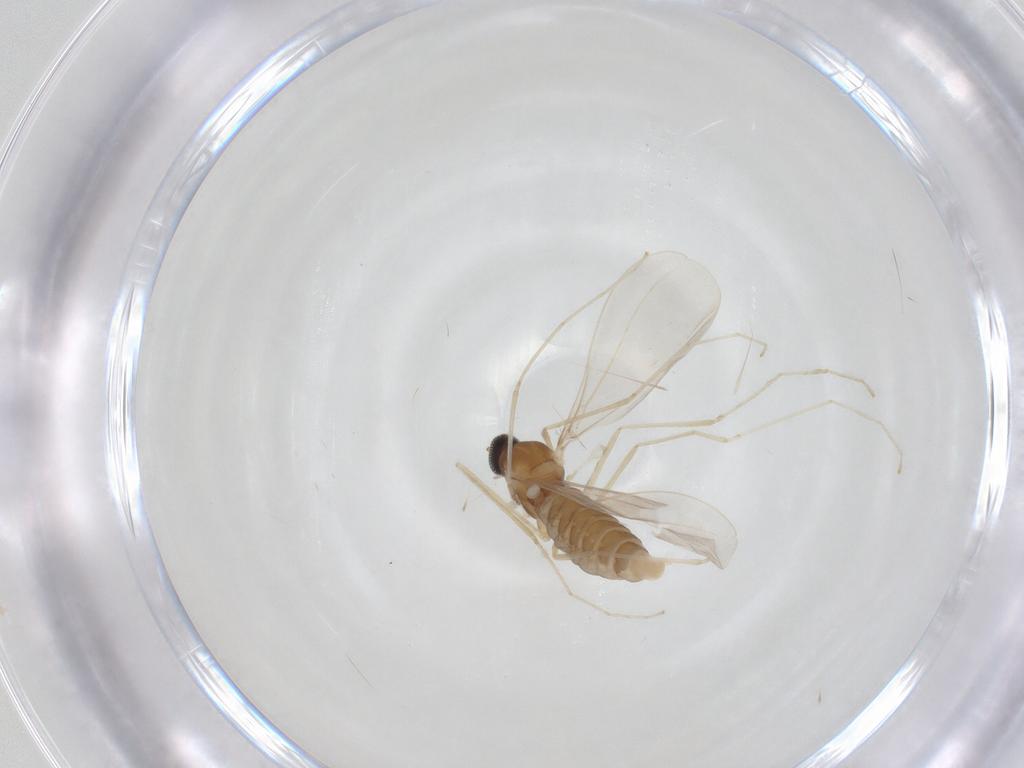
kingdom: Animalia
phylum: Arthropoda
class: Insecta
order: Diptera
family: Cecidomyiidae
